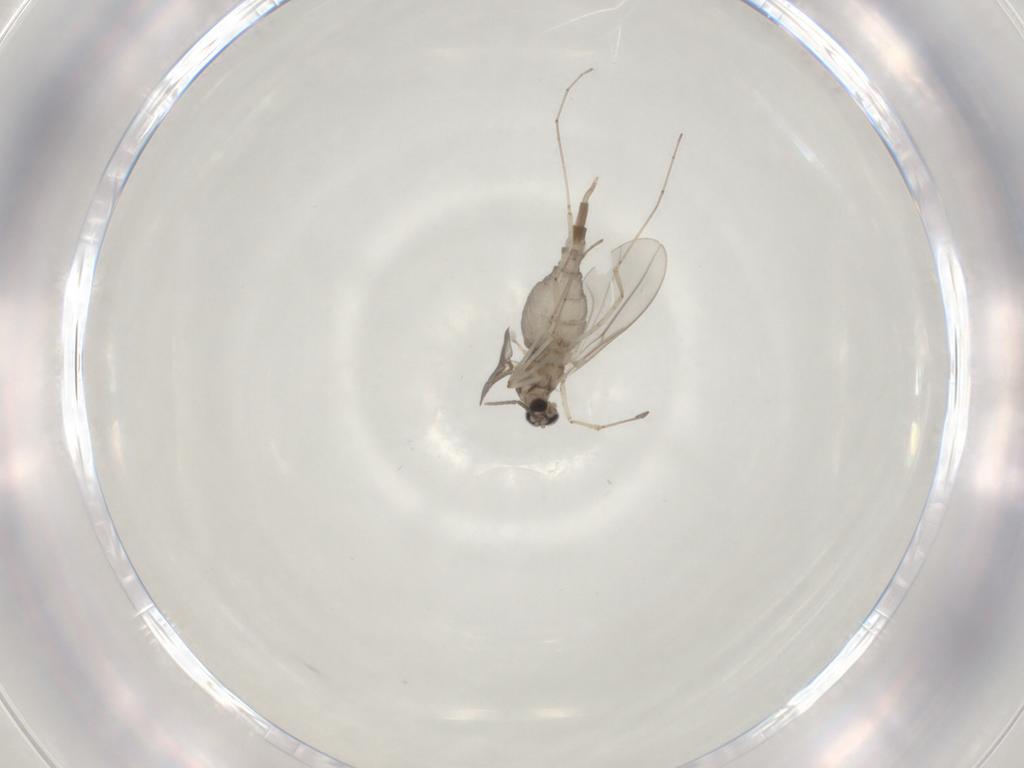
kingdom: Animalia
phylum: Arthropoda
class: Insecta
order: Diptera
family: Cecidomyiidae
